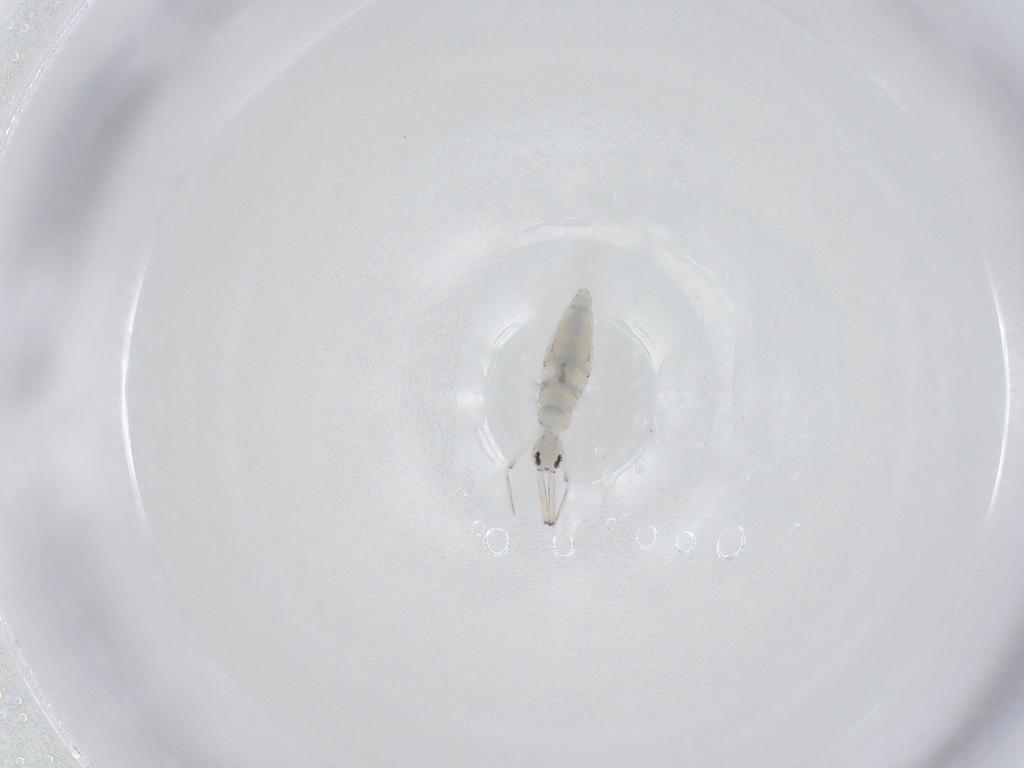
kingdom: Animalia
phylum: Arthropoda
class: Collembola
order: Entomobryomorpha
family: Paronellidae
